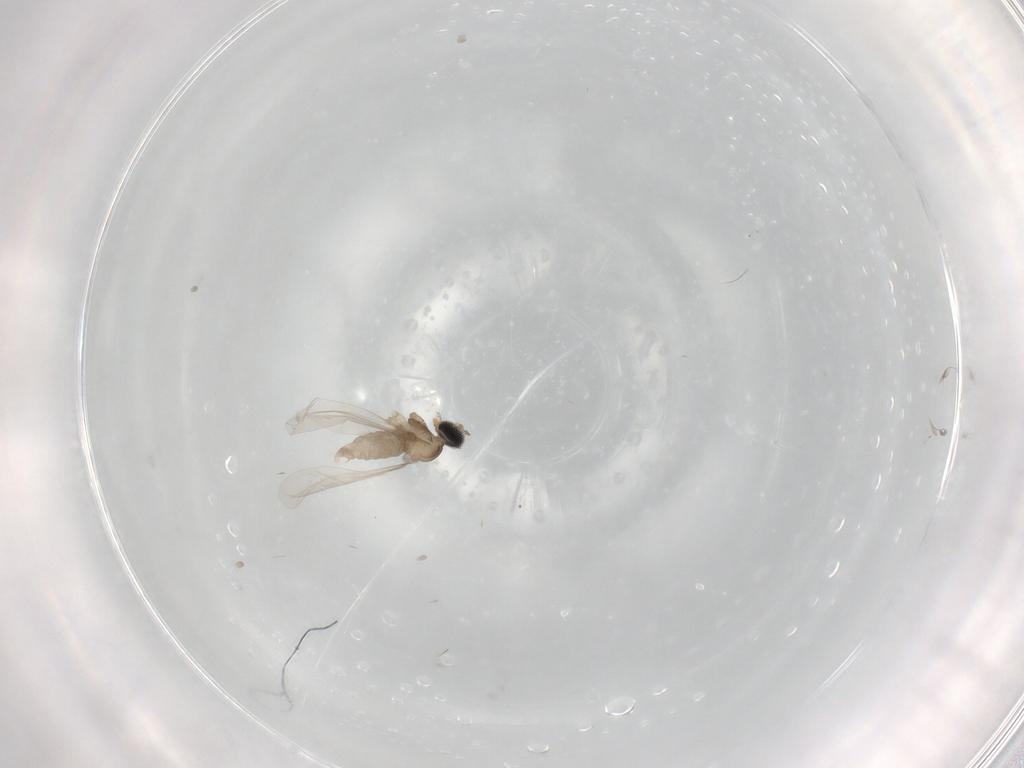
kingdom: Animalia
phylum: Arthropoda
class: Insecta
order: Diptera
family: Cecidomyiidae
